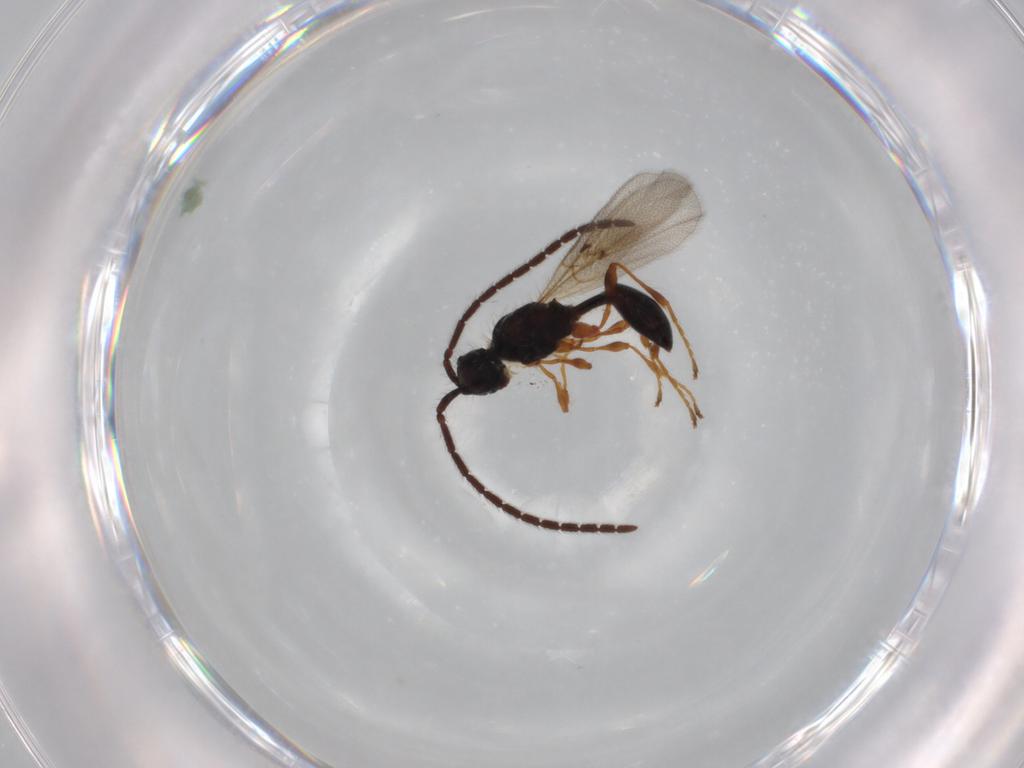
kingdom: Animalia
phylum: Arthropoda
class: Insecta
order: Hymenoptera
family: Diapriidae
